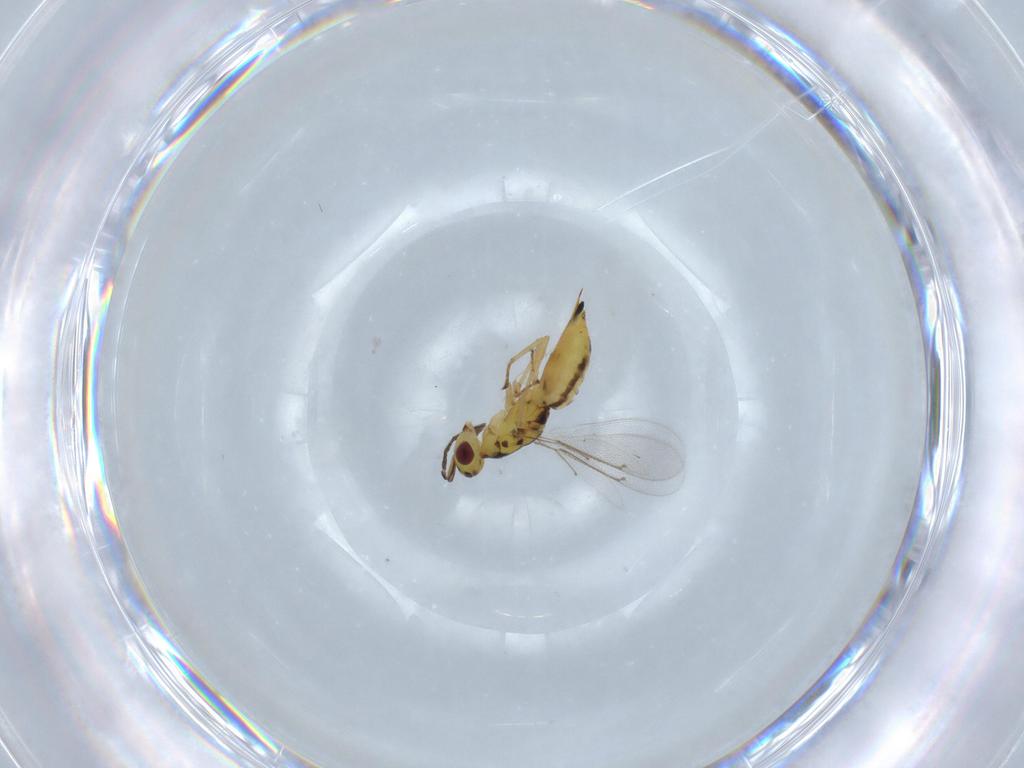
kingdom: Animalia
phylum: Arthropoda
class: Insecta
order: Hymenoptera
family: Eulophidae
